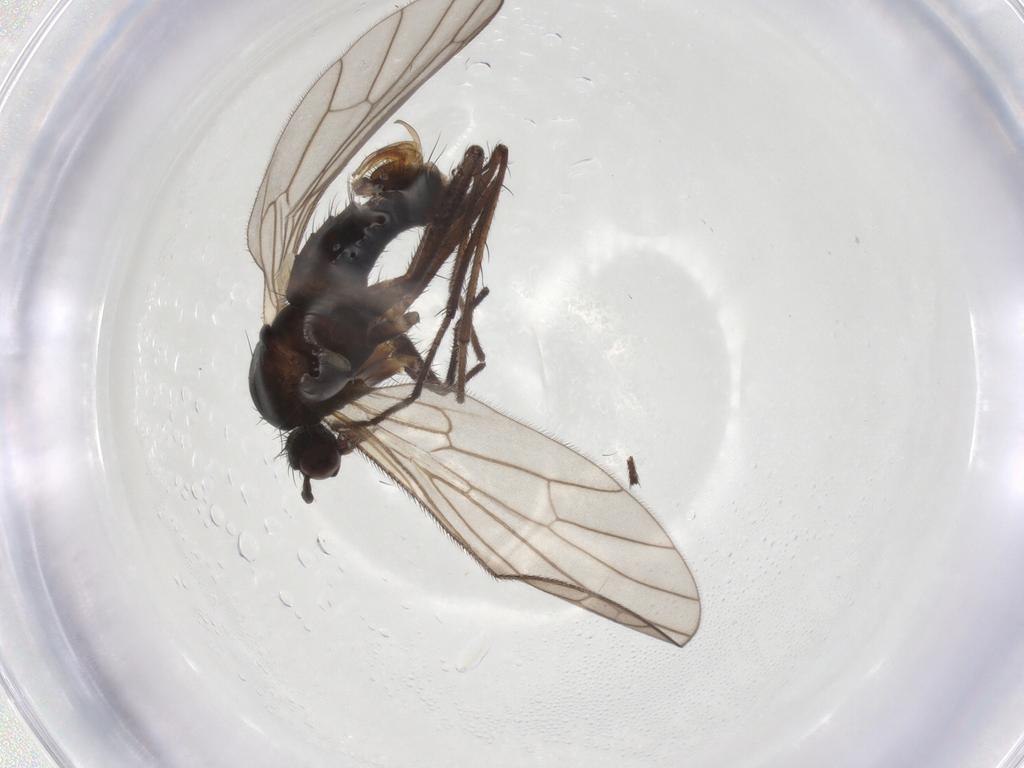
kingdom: Animalia
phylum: Arthropoda
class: Insecta
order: Diptera
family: Empididae
